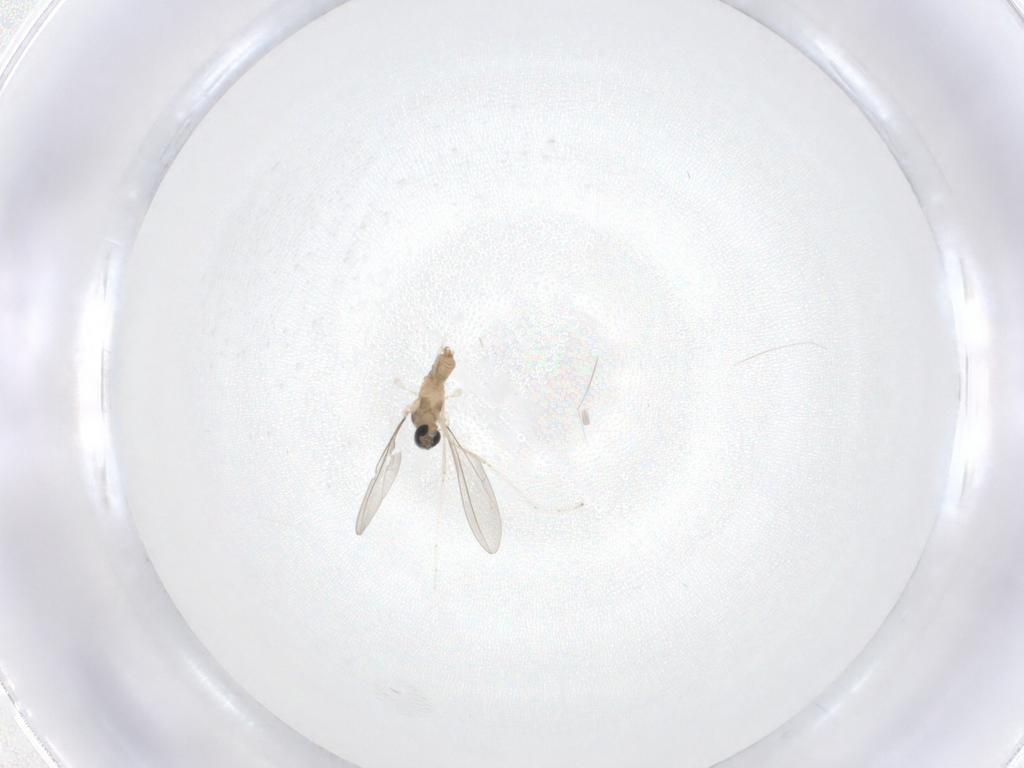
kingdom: Animalia
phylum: Arthropoda
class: Insecta
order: Diptera
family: Cecidomyiidae
